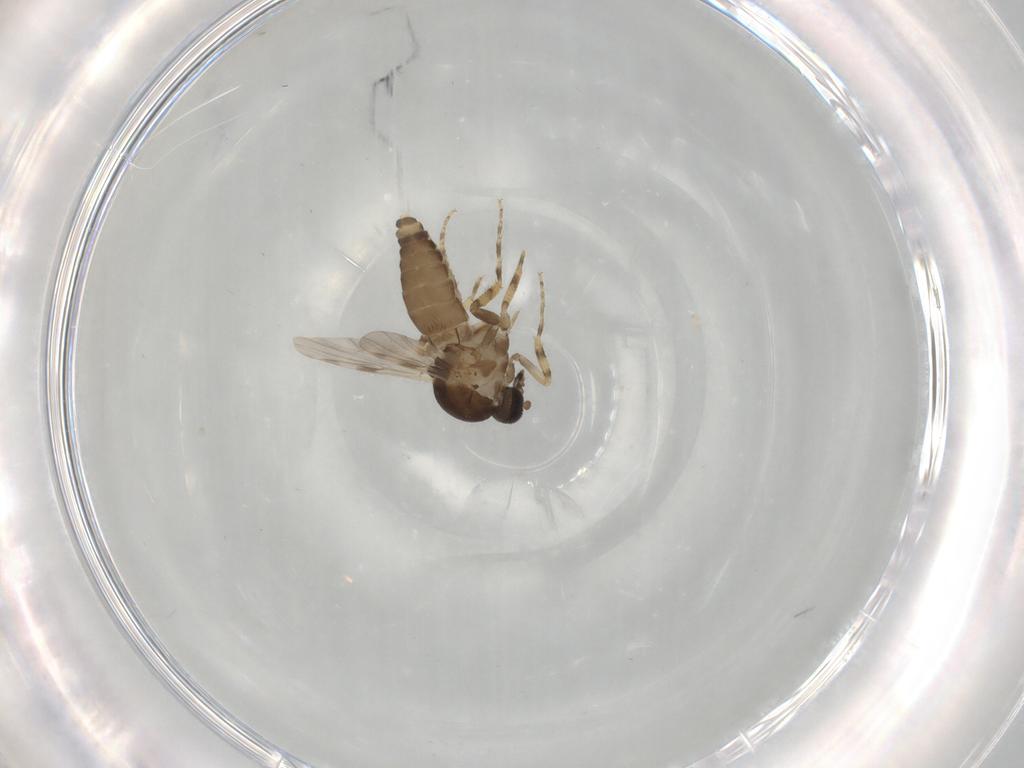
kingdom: Animalia
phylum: Arthropoda
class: Insecta
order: Diptera
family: Ceratopogonidae
